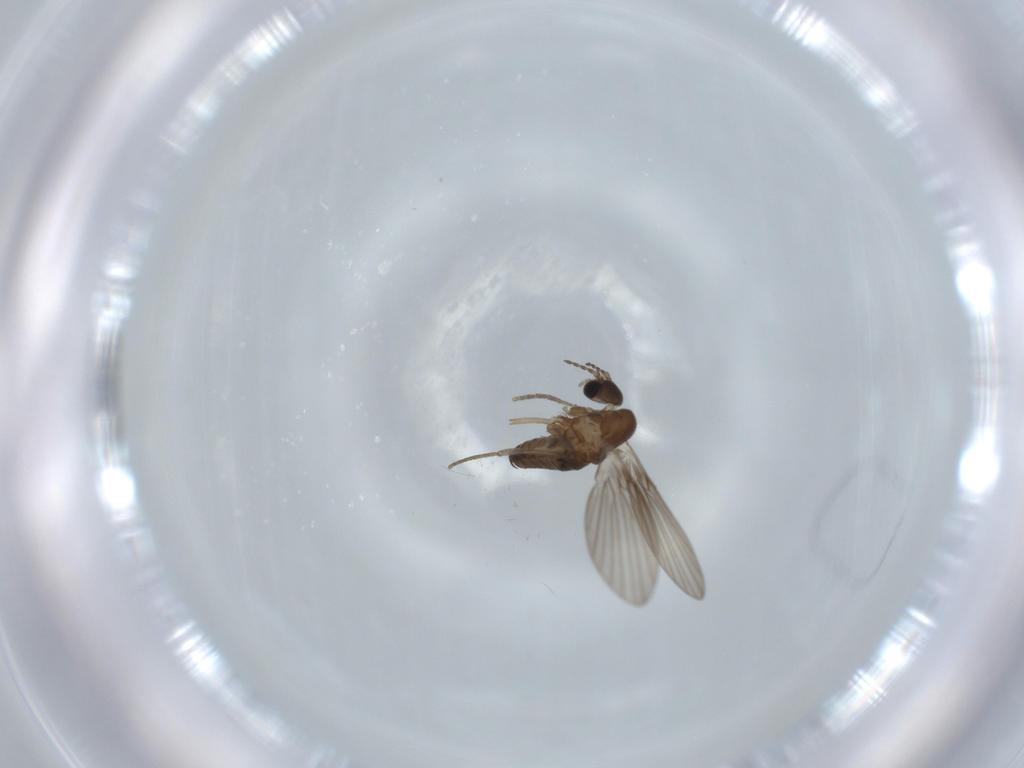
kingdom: Animalia
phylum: Arthropoda
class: Insecta
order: Diptera
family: Psychodidae
